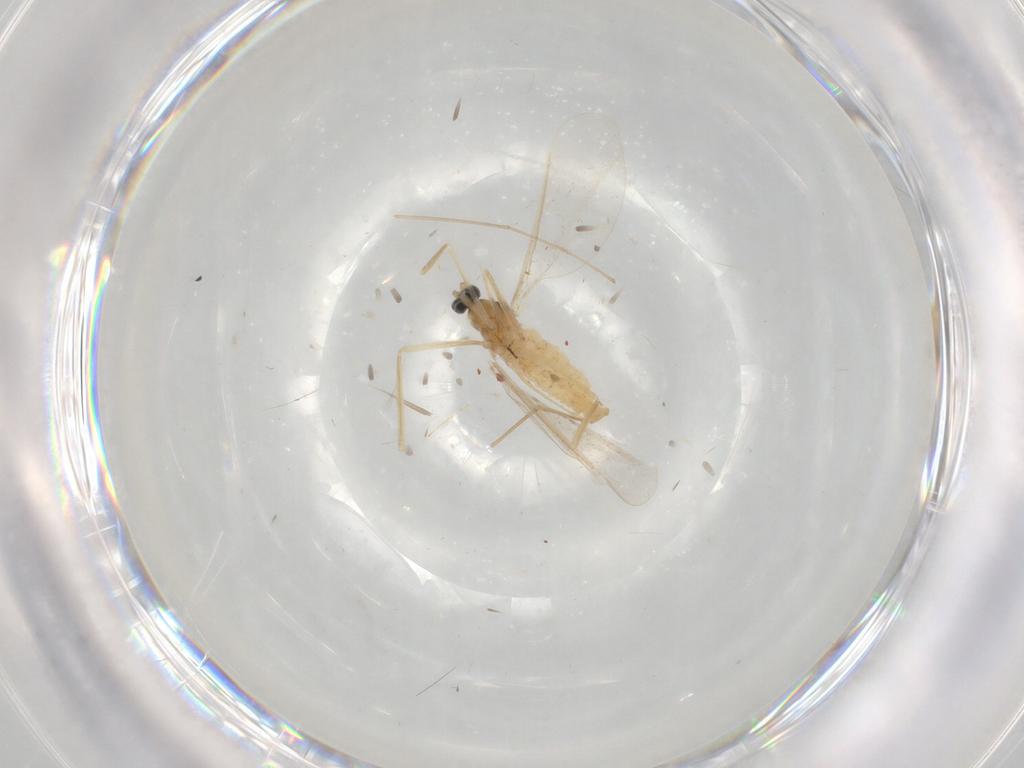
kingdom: Animalia
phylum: Arthropoda
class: Insecta
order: Diptera
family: Cecidomyiidae
